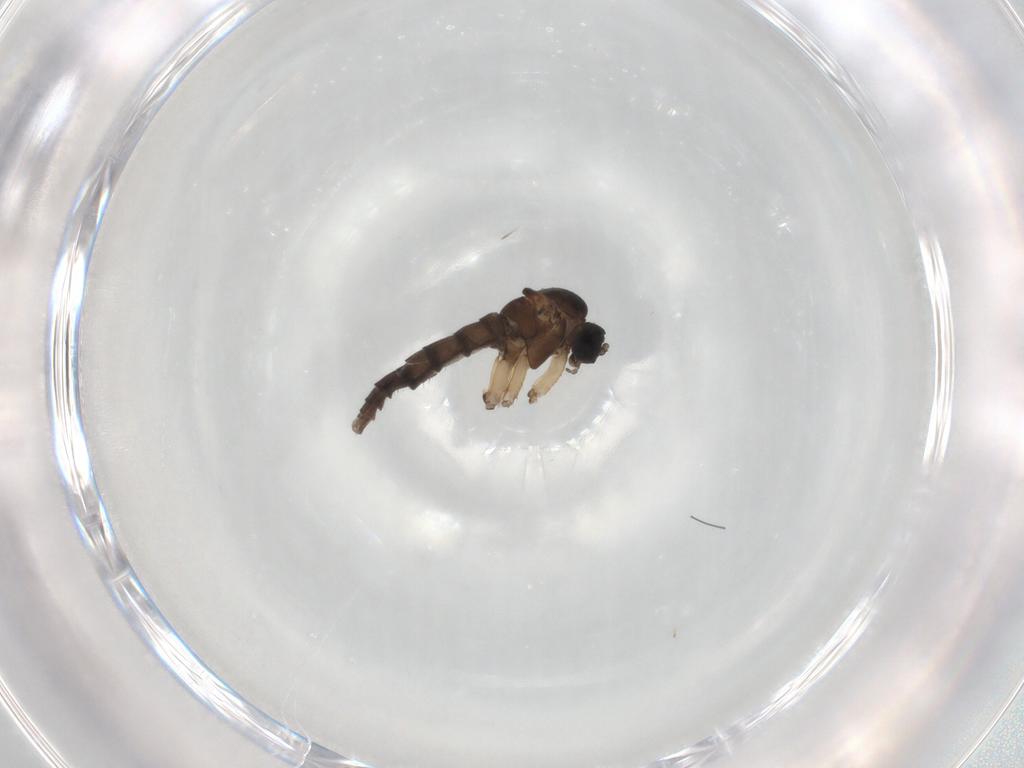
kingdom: Animalia
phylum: Arthropoda
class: Insecta
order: Diptera
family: Sciaridae
